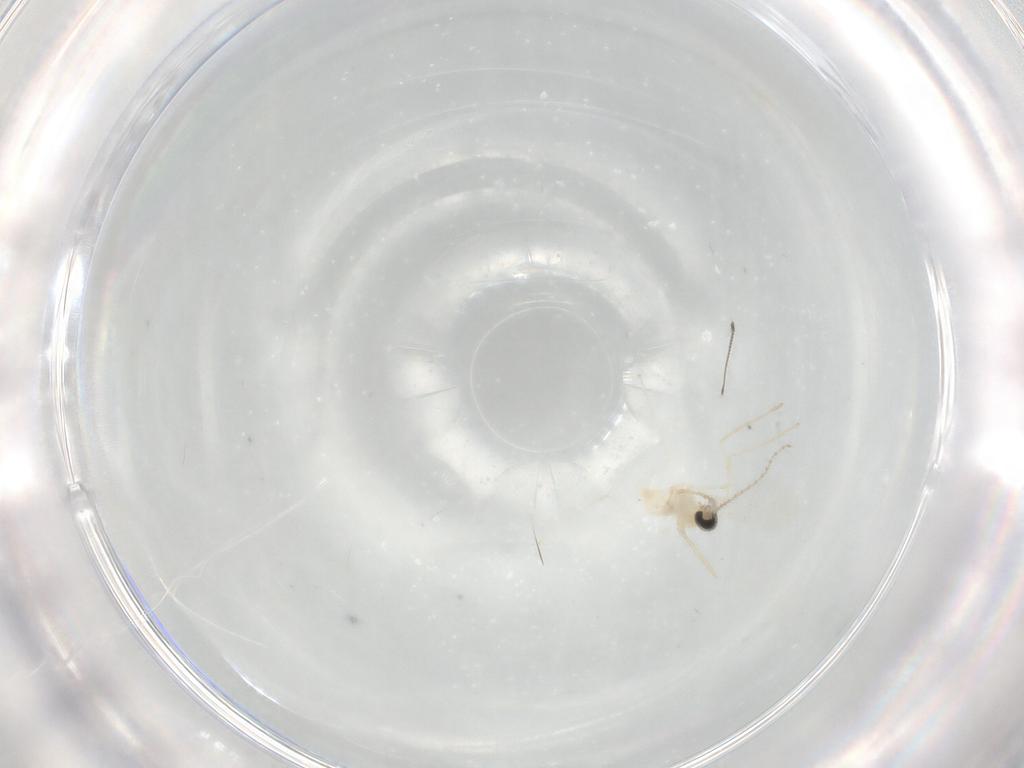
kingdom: Animalia
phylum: Arthropoda
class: Insecta
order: Diptera
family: Cecidomyiidae
